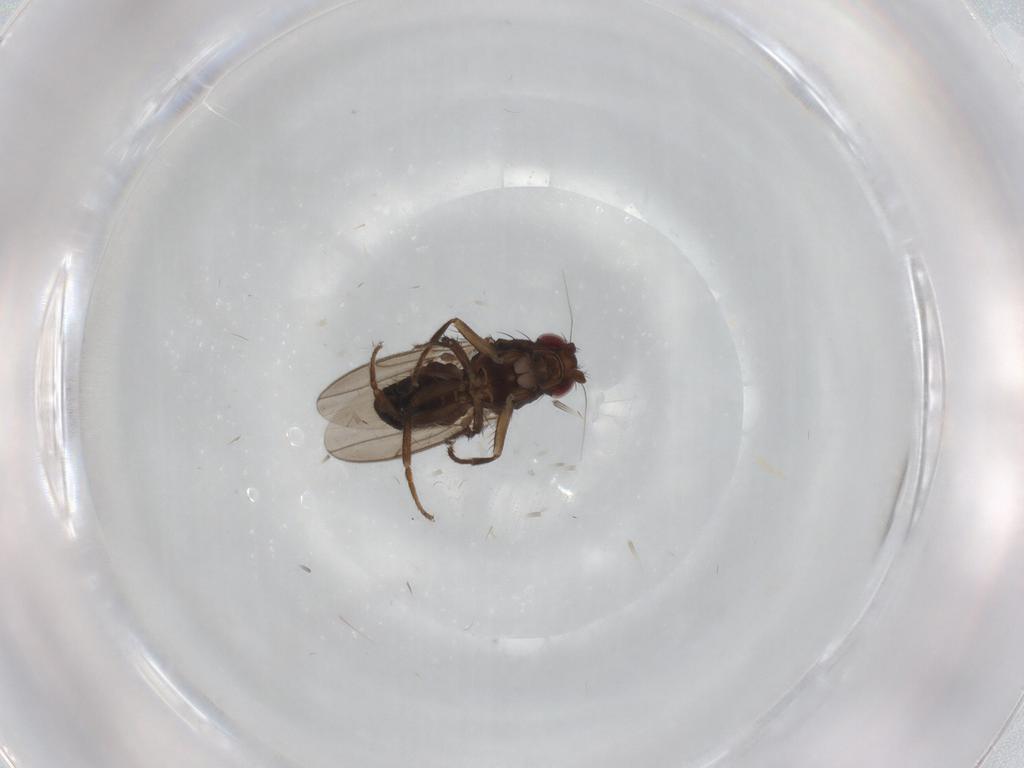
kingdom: Animalia
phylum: Arthropoda
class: Insecta
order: Diptera
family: Sphaeroceridae
